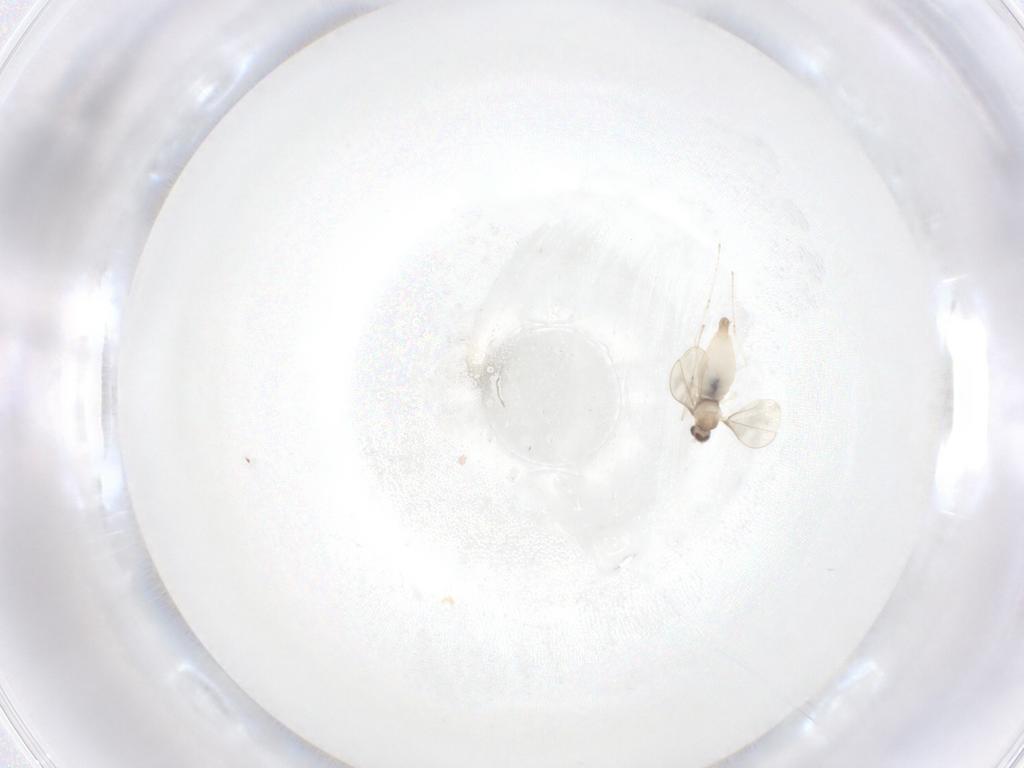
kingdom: Animalia
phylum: Arthropoda
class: Insecta
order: Diptera
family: Cecidomyiidae
